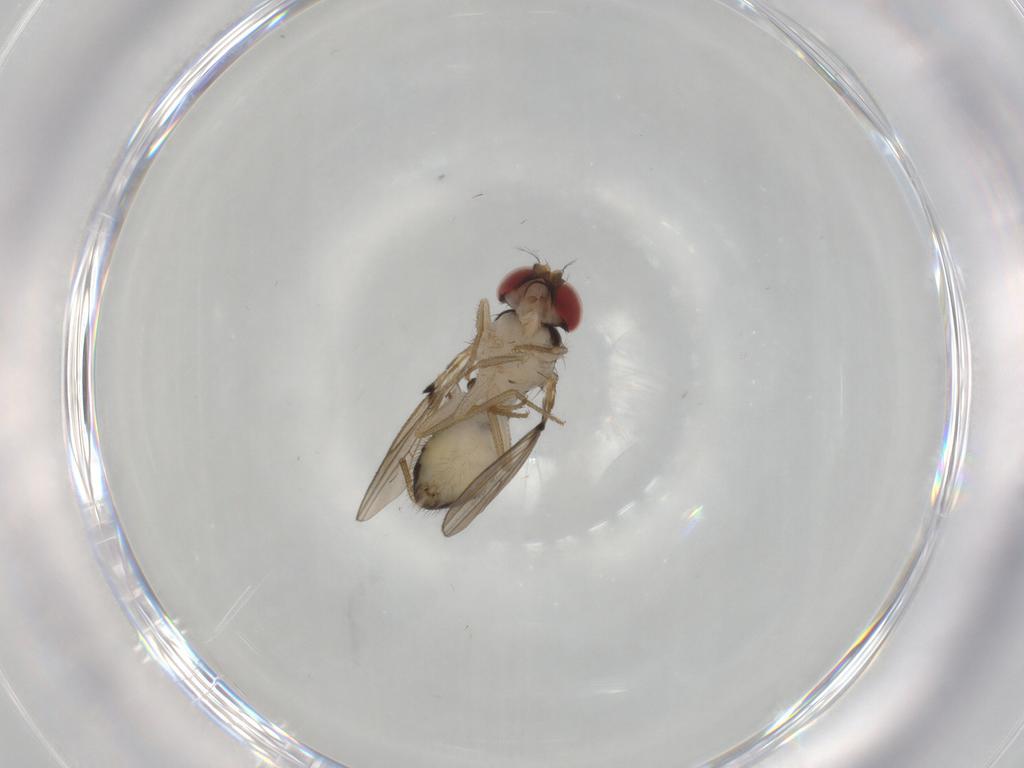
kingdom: Animalia
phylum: Arthropoda
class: Insecta
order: Diptera
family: Drosophilidae
